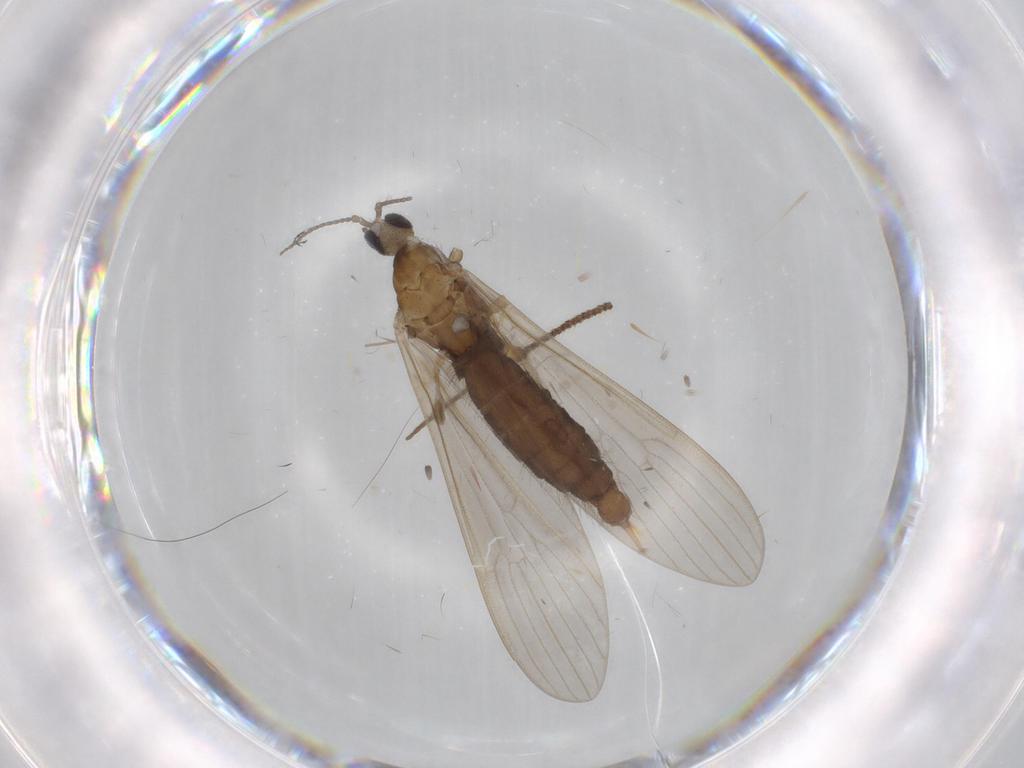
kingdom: Animalia
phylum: Arthropoda
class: Insecta
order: Diptera
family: Limoniidae
